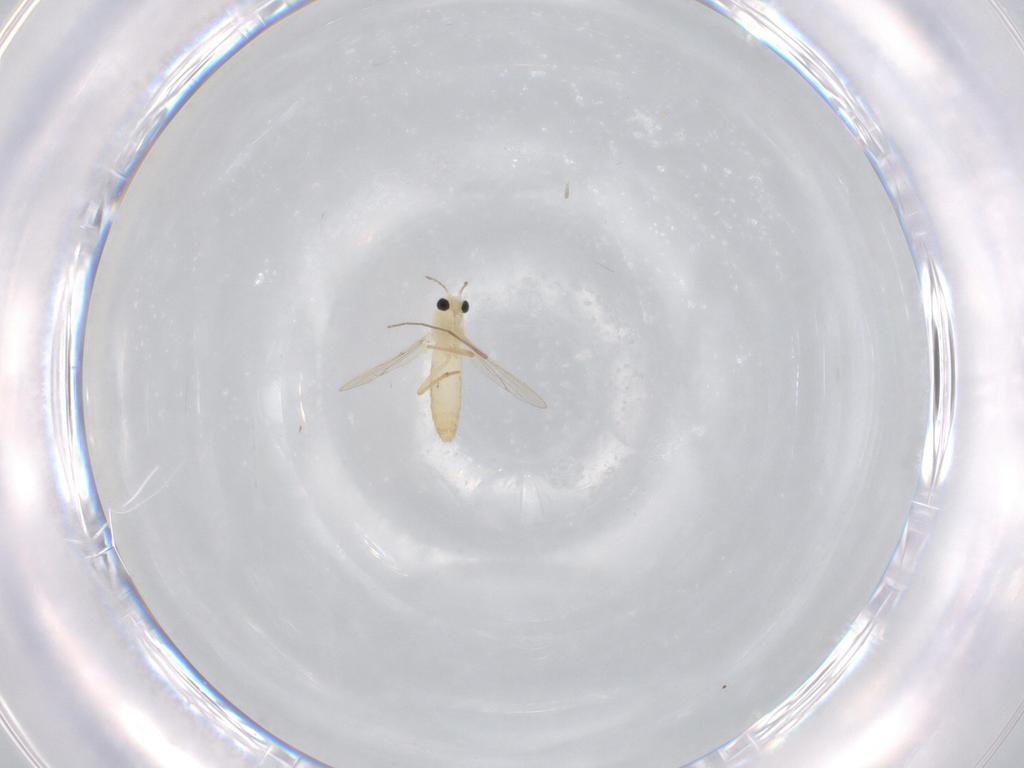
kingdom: Animalia
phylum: Arthropoda
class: Insecta
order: Diptera
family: Chironomidae
